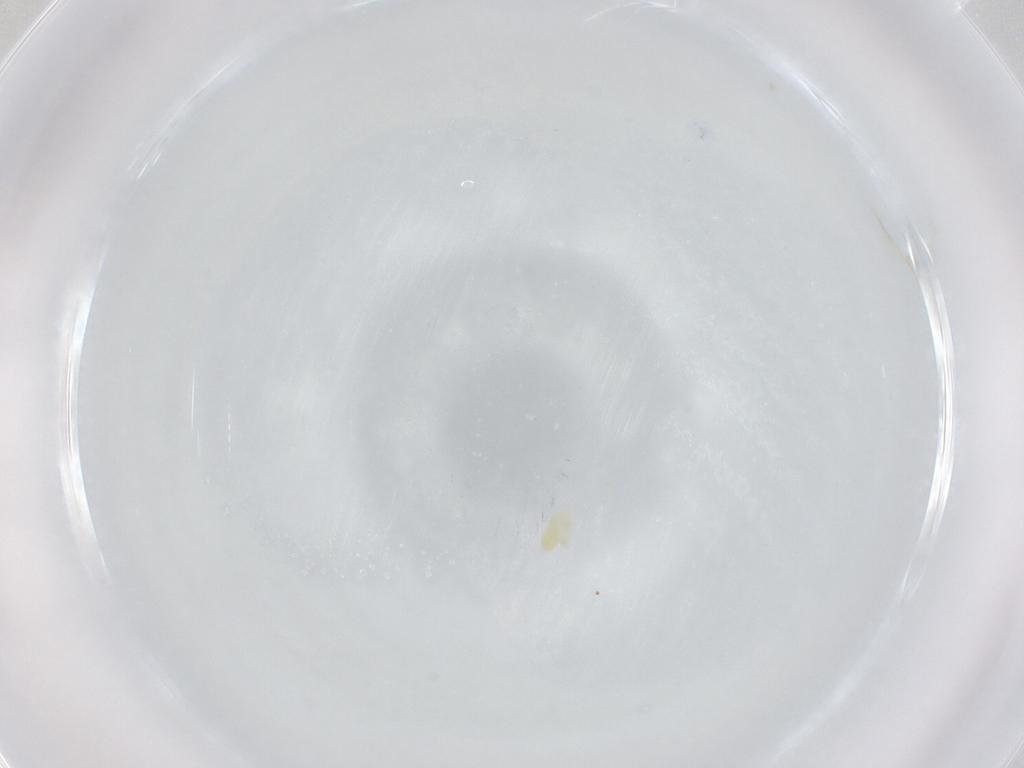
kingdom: Animalia
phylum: Arthropoda
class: Arachnida
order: Trombidiformes
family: Eupodidae
